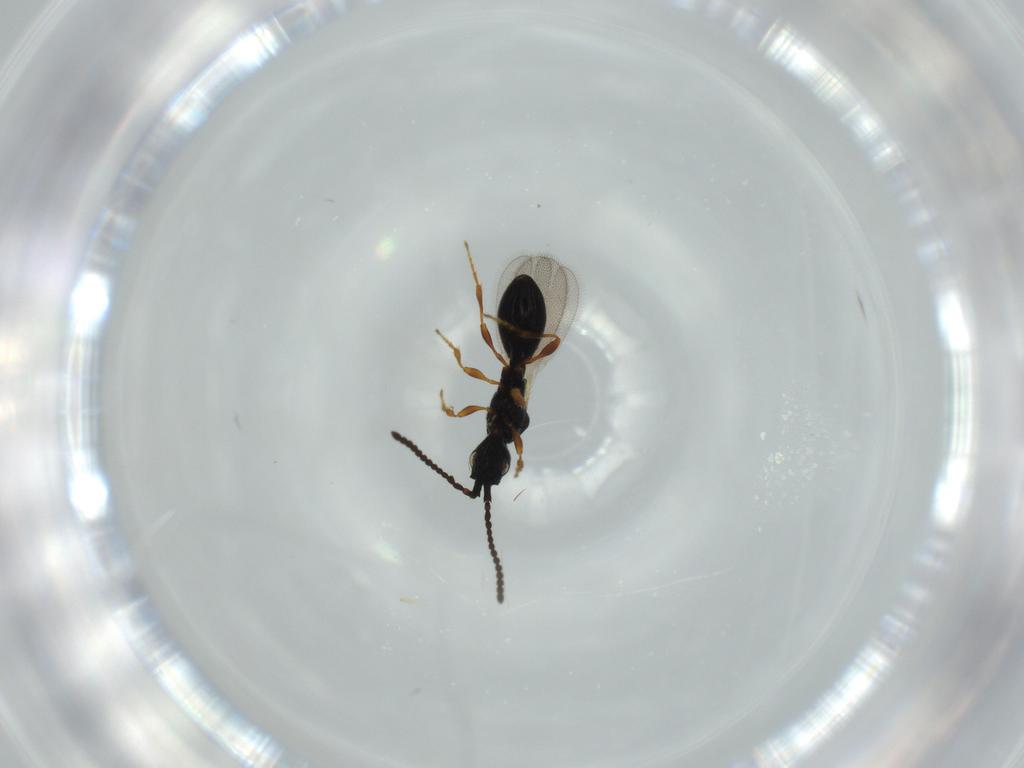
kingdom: Animalia
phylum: Arthropoda
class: Insecta
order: Hymenoptera
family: Diapriidae
